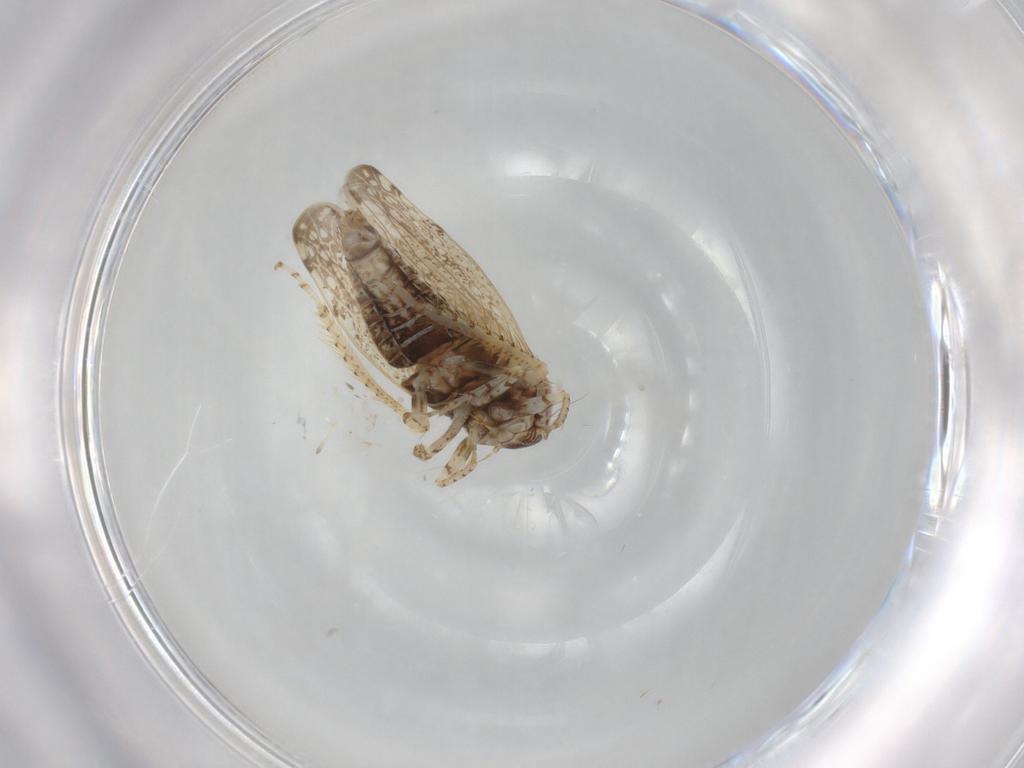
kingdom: Animalia
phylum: Arthropoda
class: Insecta
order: Hemiptera
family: Cicadellidae
